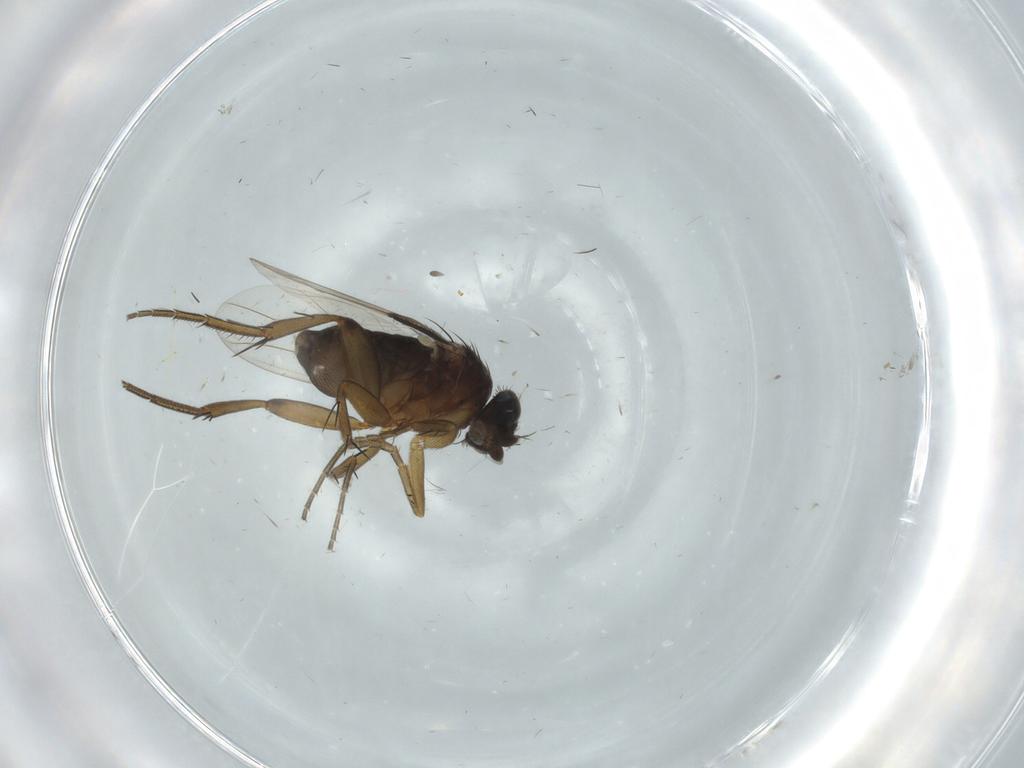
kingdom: Animalia
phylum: Arthropoda
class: Insecta
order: Diptera
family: Phoridae
